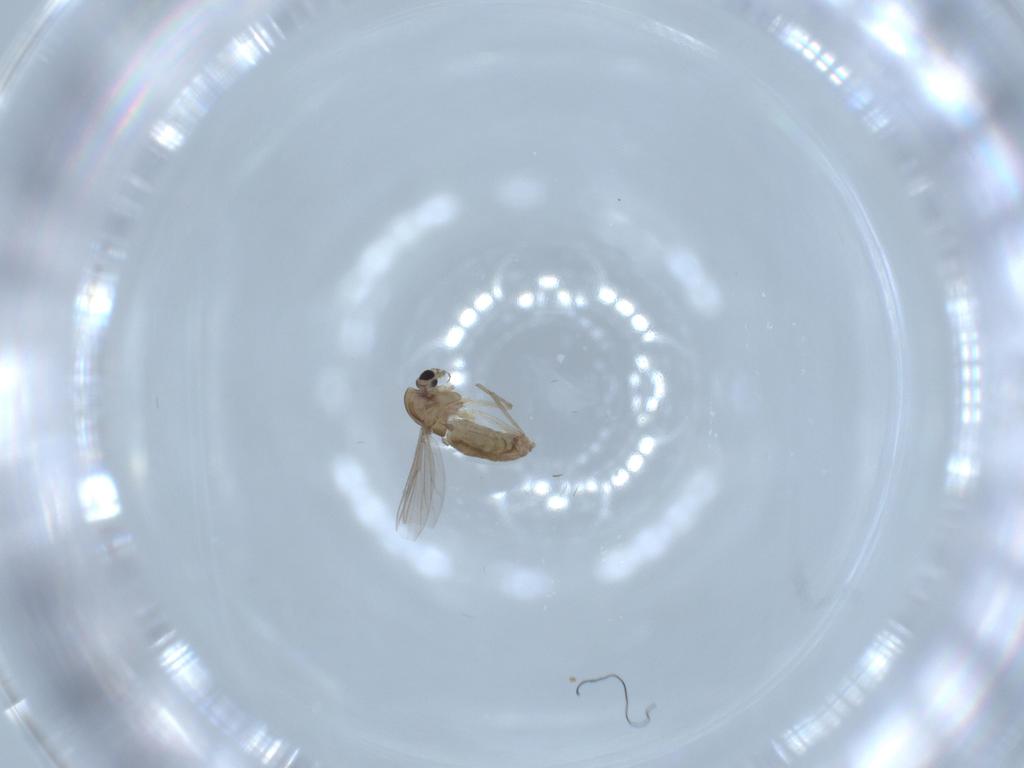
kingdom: Animalia
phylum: Arthropoda
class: Insecta
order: Diptera
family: Chironomidae
